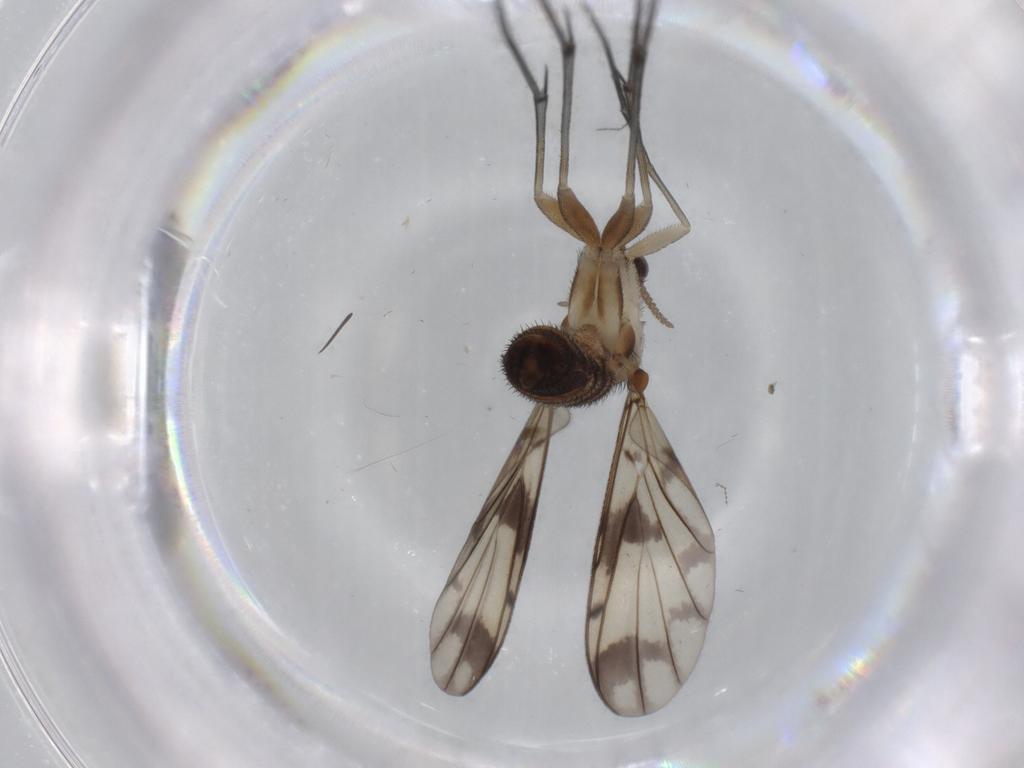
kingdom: Animalia
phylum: Arthropoda
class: Insecta
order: Diptera
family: Keroplatidae
